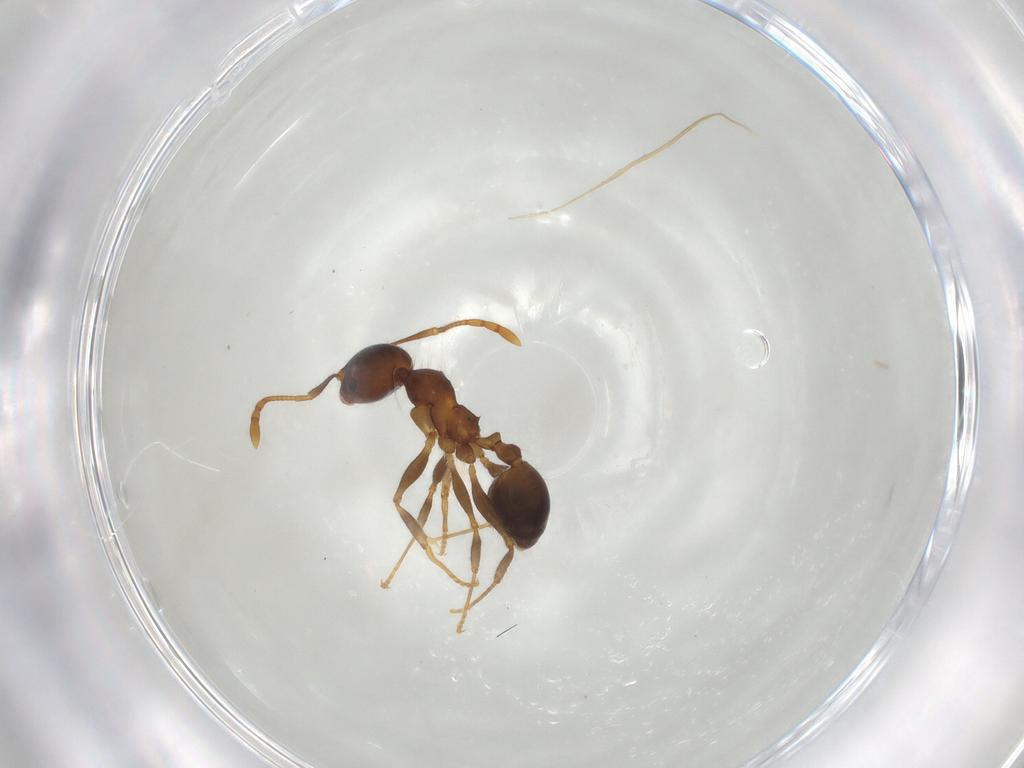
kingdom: Animalia
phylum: Arthropoda
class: Insecta
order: Hymenoptera
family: Formicidae
